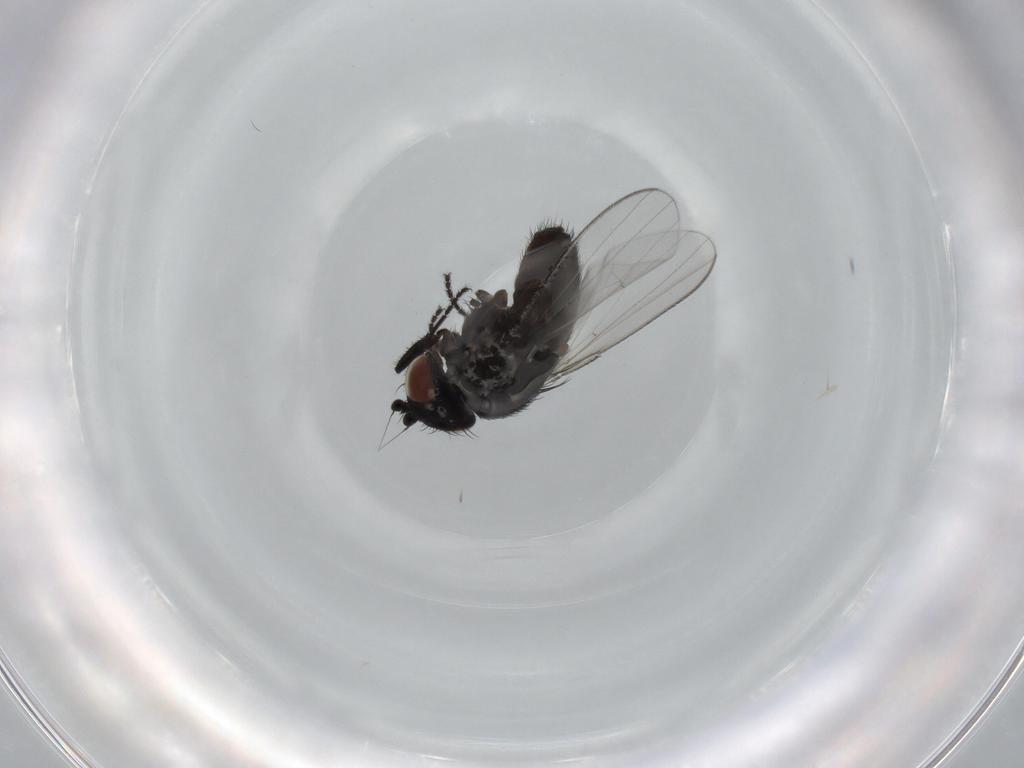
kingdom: Animalia
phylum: Arthropoda
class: Insecta
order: Diptera
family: Milichiidae
